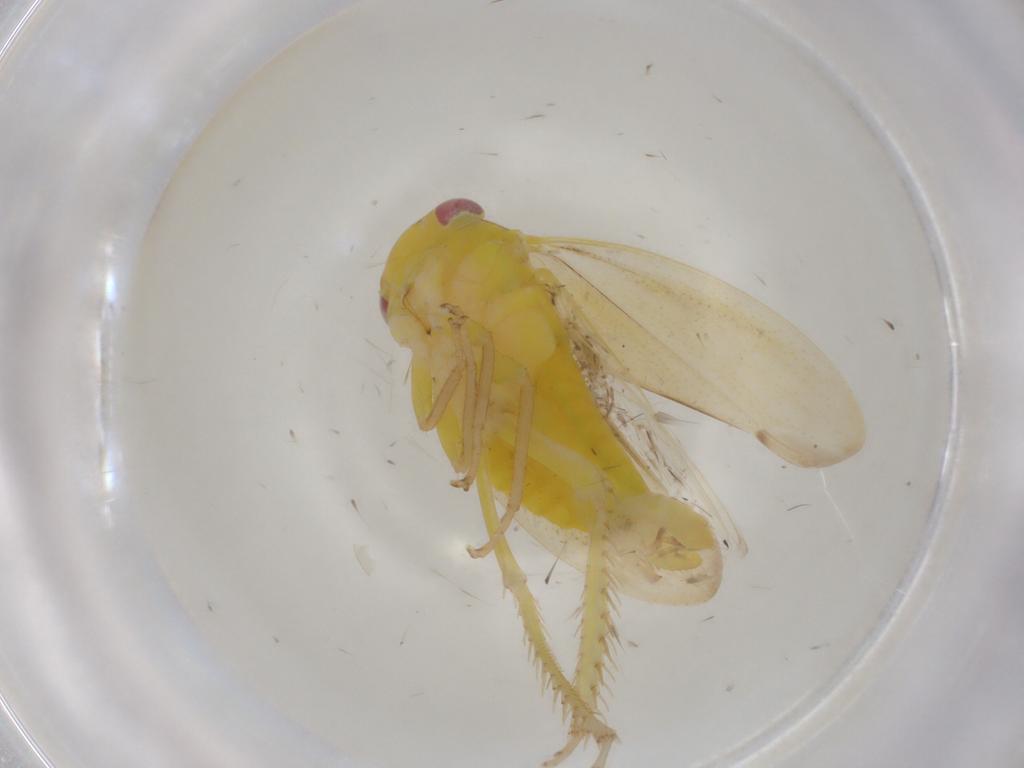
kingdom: Animalia
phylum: Arthropoda
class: Insecta
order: Hemiptera
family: Cicadellidae
